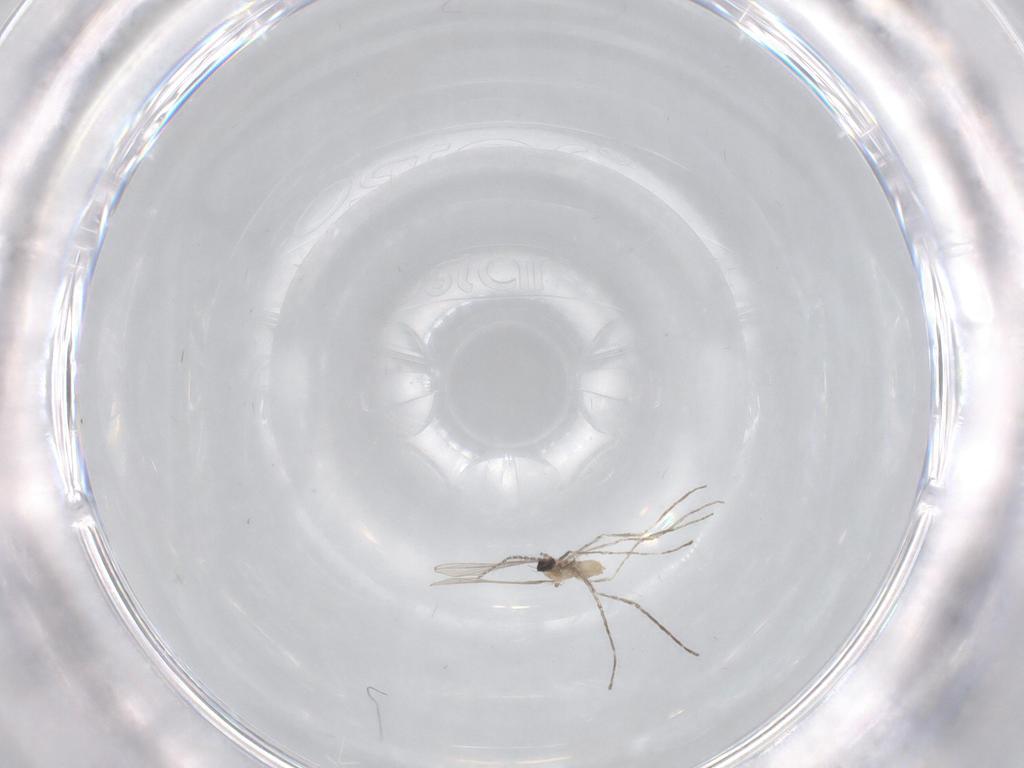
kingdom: Animalia
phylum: Arthropoda
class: Insecta
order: Diptera
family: Cecidomyiidae
